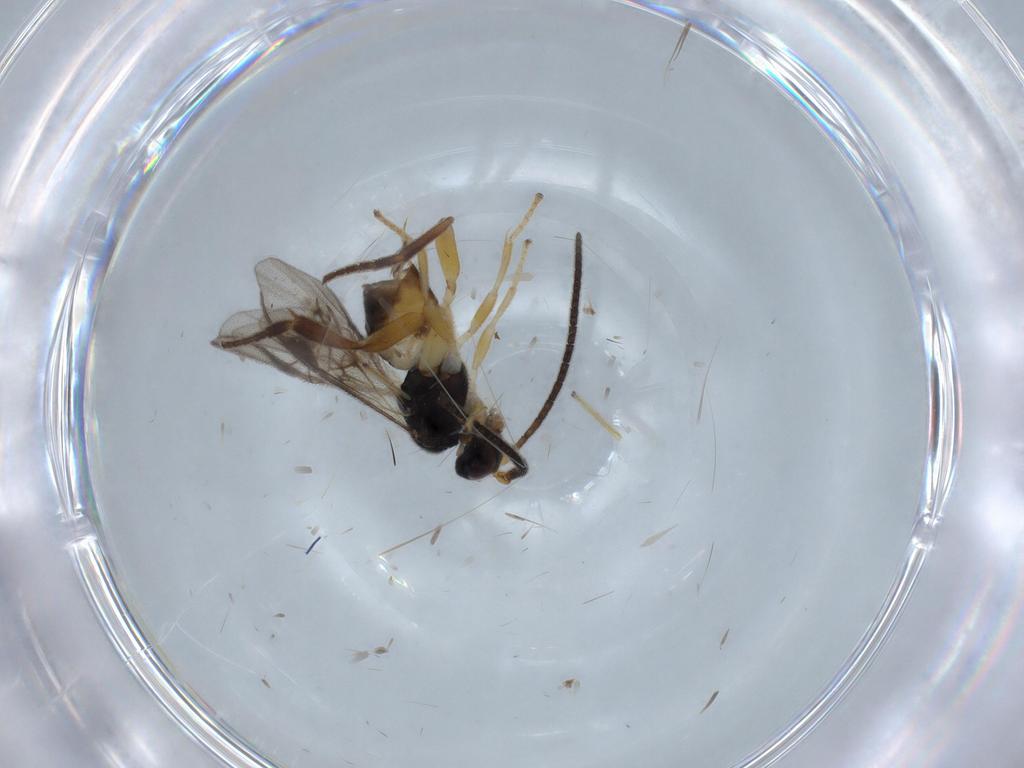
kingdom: Animalia
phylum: Arthropoda
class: Insecta
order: Hymenoptera
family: Braconidae
